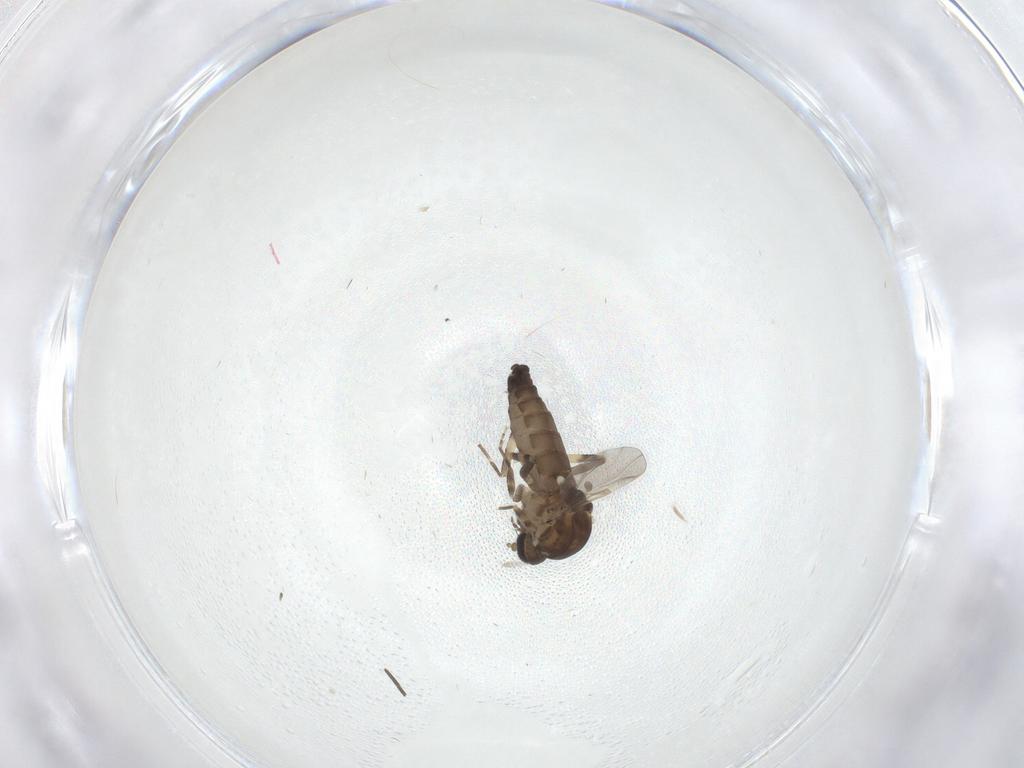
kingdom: Animalia
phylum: Arthropoda
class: Insecta
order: Diptera
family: Ceratopogonidae
